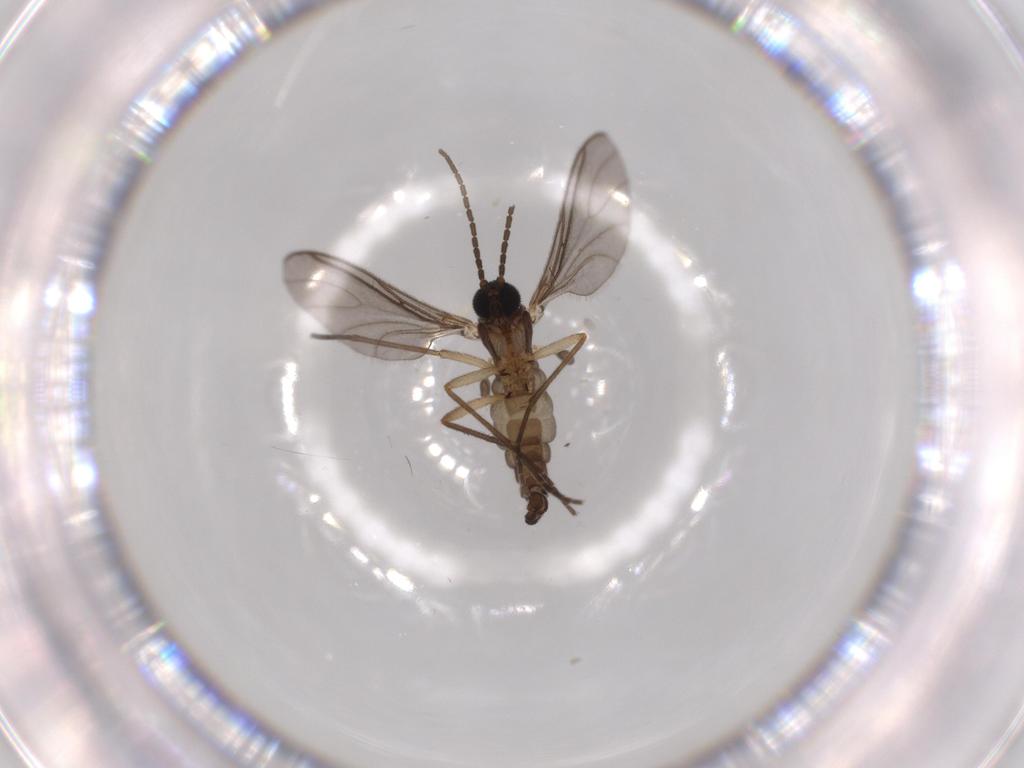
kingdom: Animalia
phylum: Arthropoda
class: Insecta
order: Diptera
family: Sciaridae
